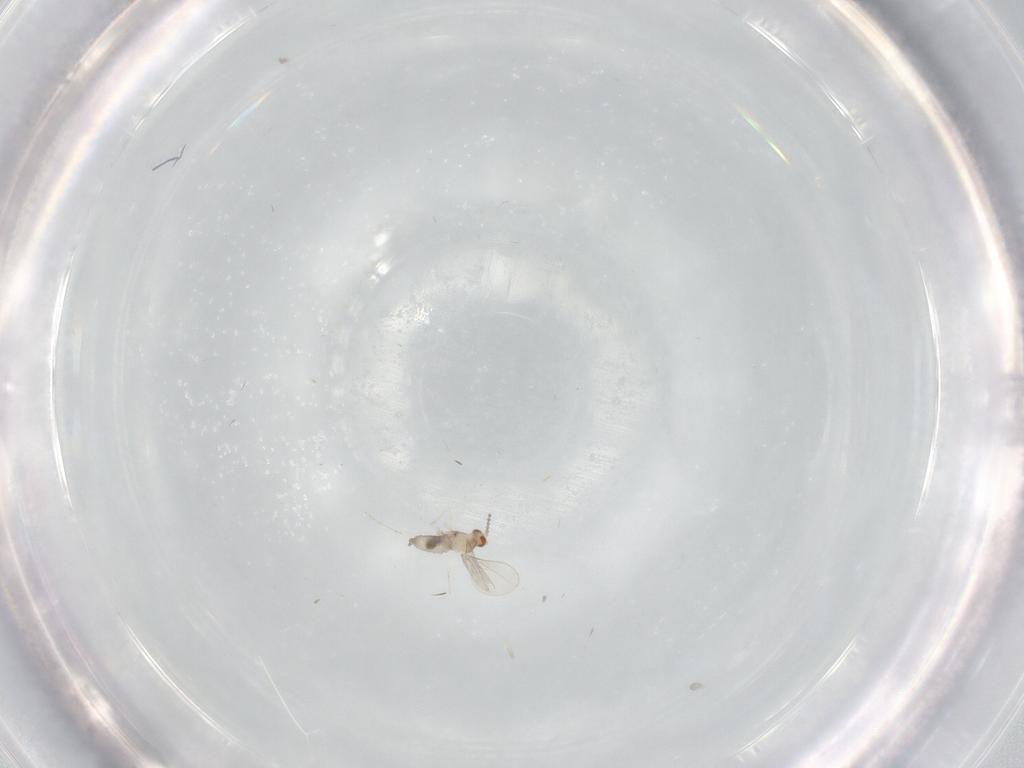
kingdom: Animalia
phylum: Arthropoda
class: Insecta
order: Diptera
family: Cecidomyiidae
